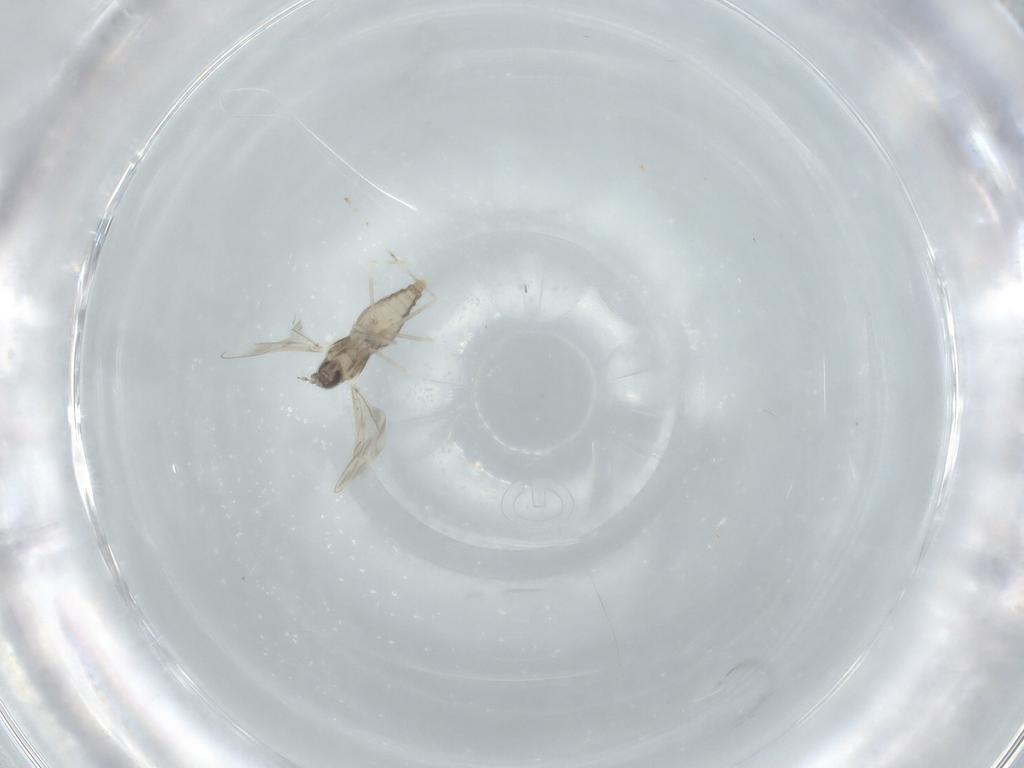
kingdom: Animalia
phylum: Arthropoda
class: Insecta
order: Diptera
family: Cecidomyiidae
